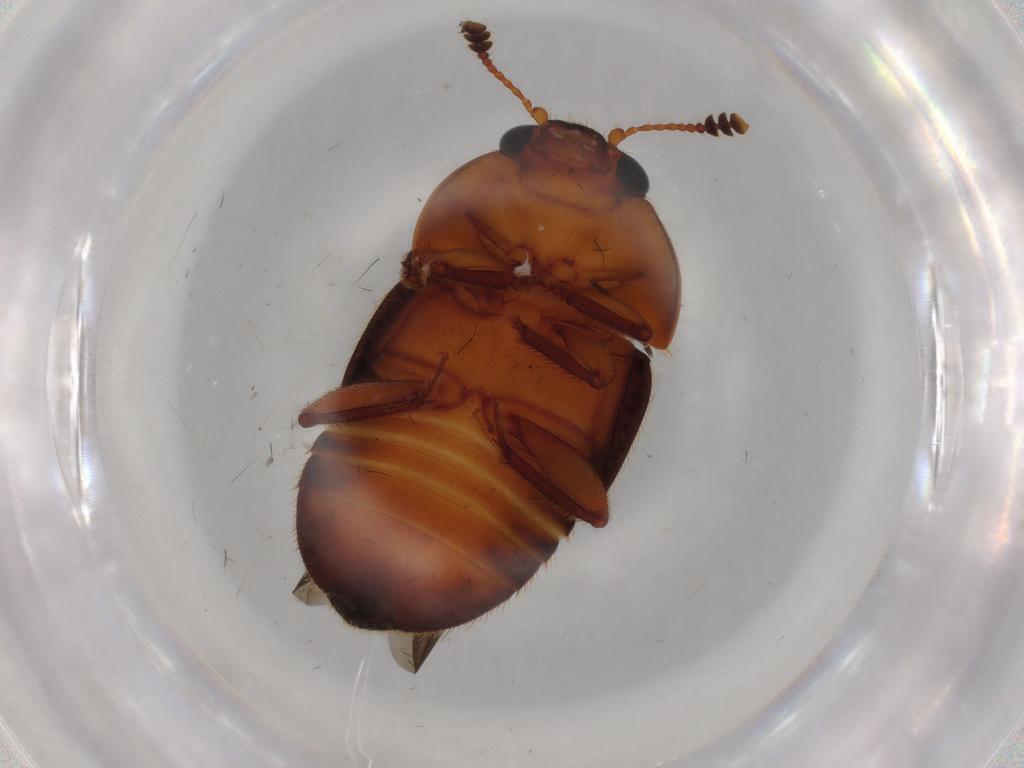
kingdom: Animalia
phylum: Arthropoda
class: Insecta
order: Coleoptera
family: Nitidulidae
